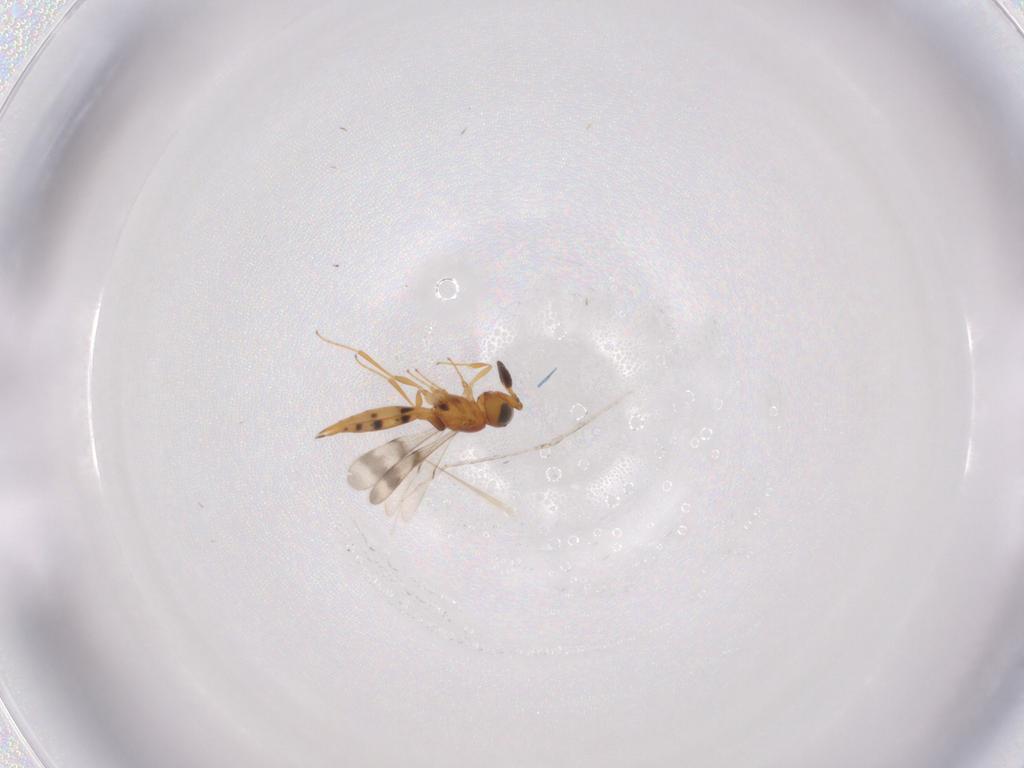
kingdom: Animalia
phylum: Arthropoda
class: Insecta
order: Hymenoptera
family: Scelionidae
